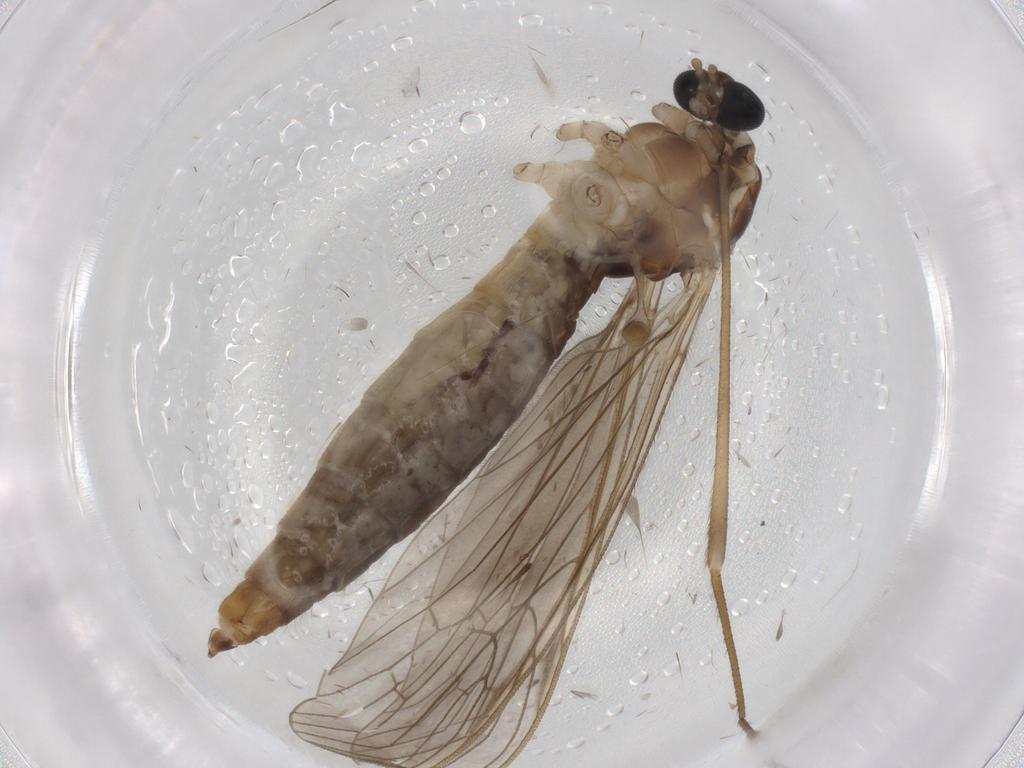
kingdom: Animalia
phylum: Arthropoda
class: Insecta
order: Diptera
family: Limoniidae
